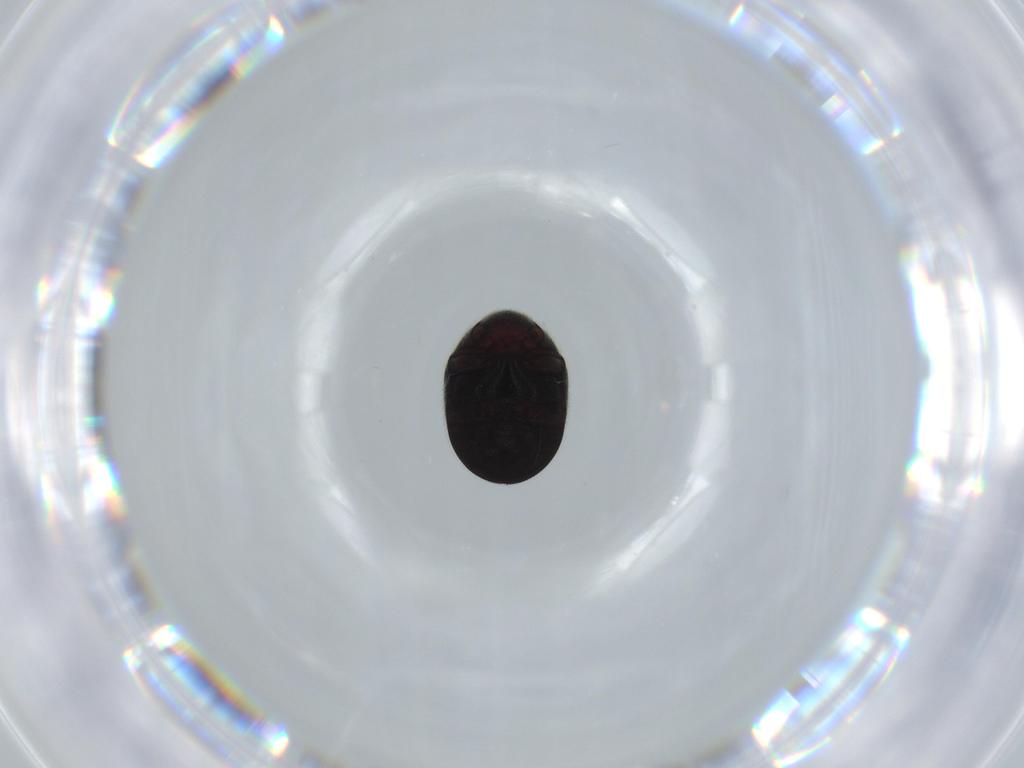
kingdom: Animalia
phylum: Arthropoda
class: Insecta
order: Coleoptera
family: Ptinidae
